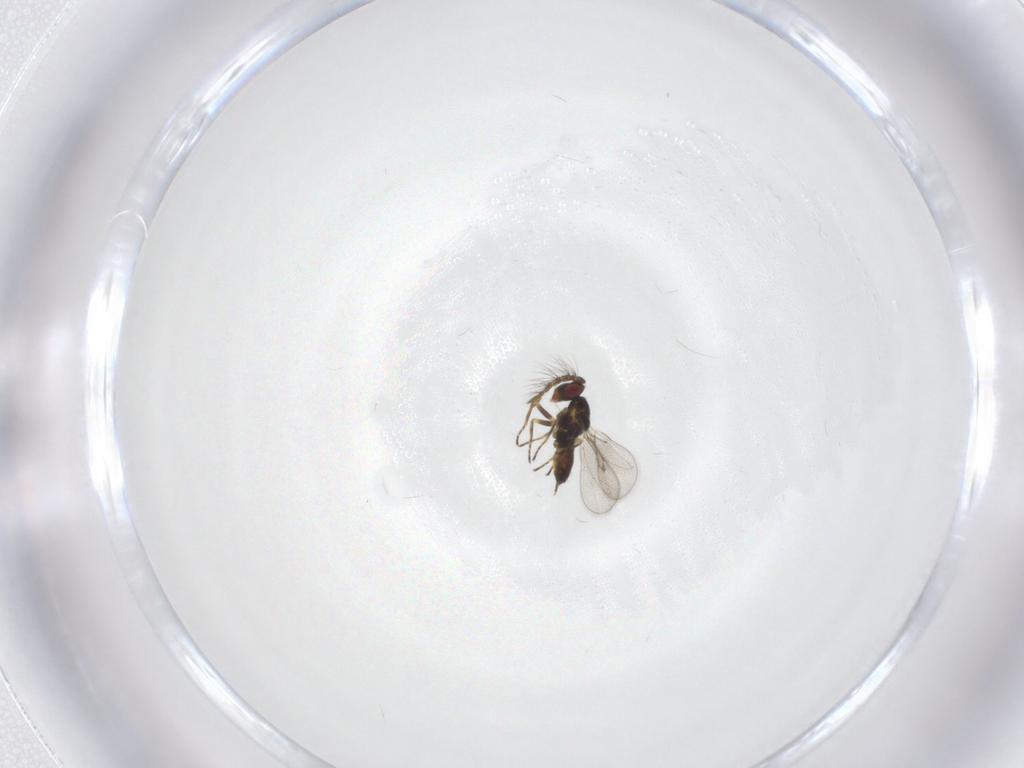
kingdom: Animalia
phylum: Arthropoda
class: Insecta
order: Hymenoptera
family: Eulophidae
